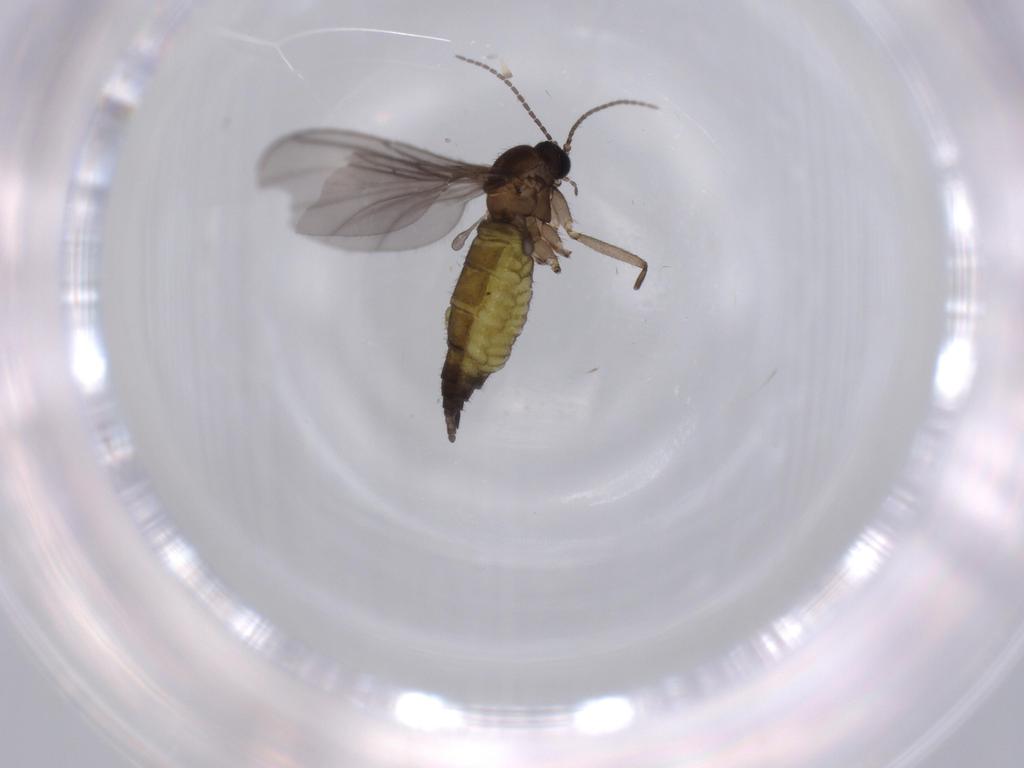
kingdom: Animalia
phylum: Arthropoda
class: Insecta
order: Diptera
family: Sciaridae
